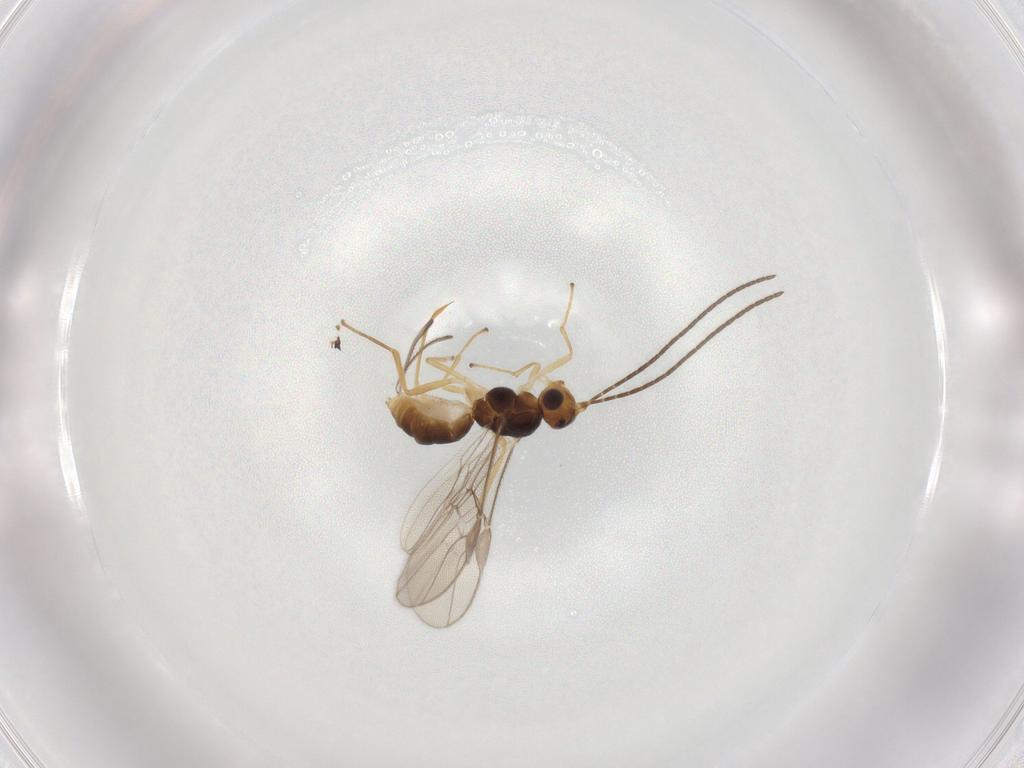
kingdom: Animalia
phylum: Arthropoda
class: Insecta
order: Hymenoptera
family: Braconidae
